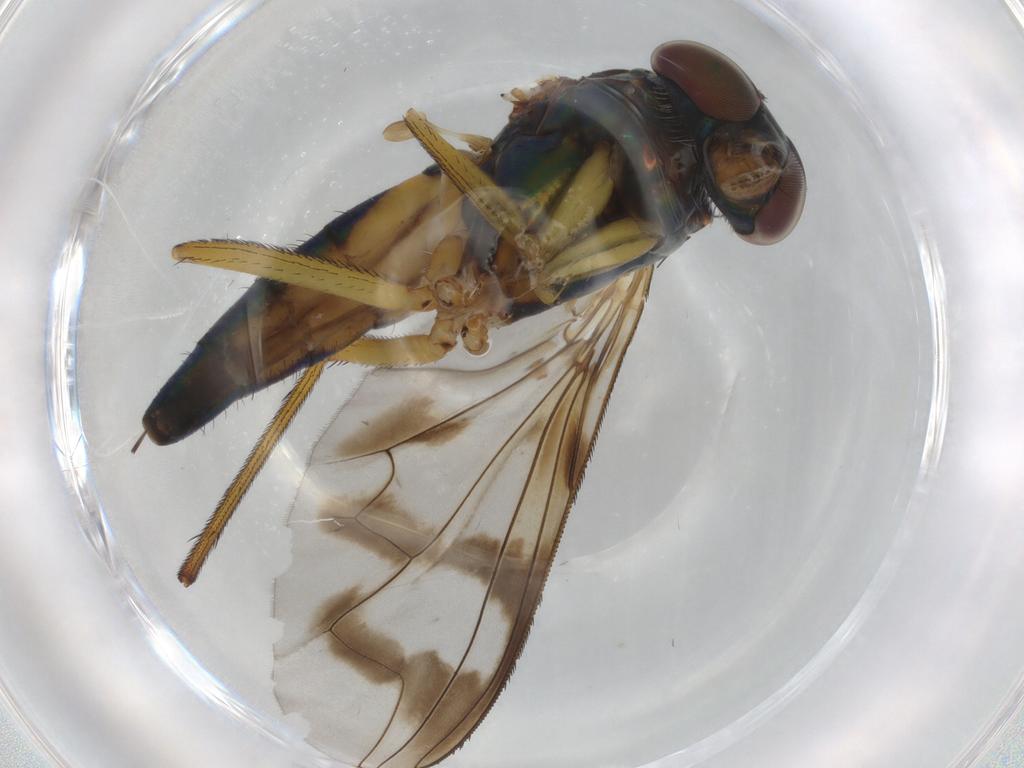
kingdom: Animalia
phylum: Arthropoda
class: Insecta
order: Diptera
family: Dolichopodidae
